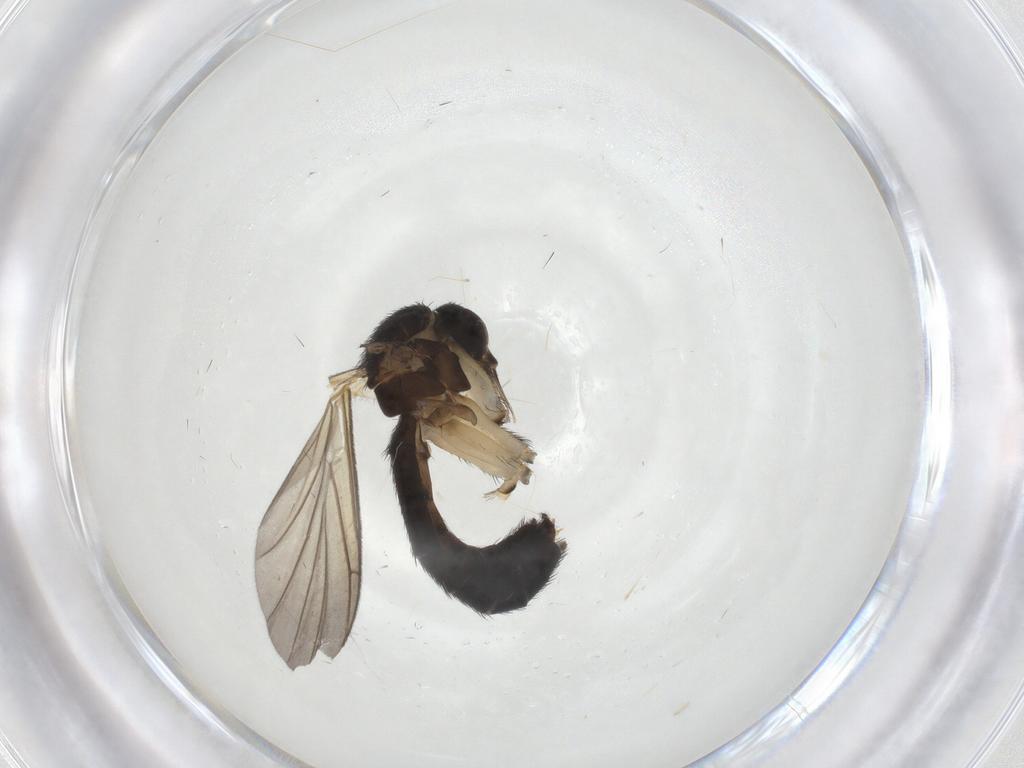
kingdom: Animalia
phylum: Arthropoda
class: Insecta
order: Diptera
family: Keroplatidae
